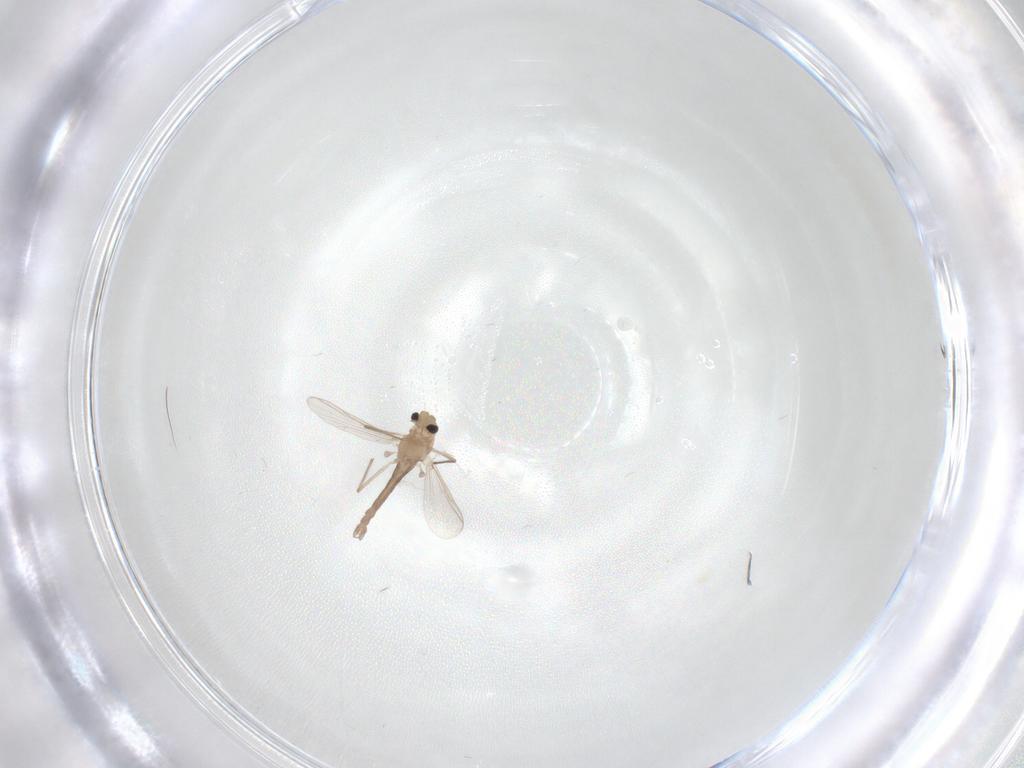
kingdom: Animalia
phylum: Arthropoda
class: Insecta
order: Diptera
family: Chironomidae
